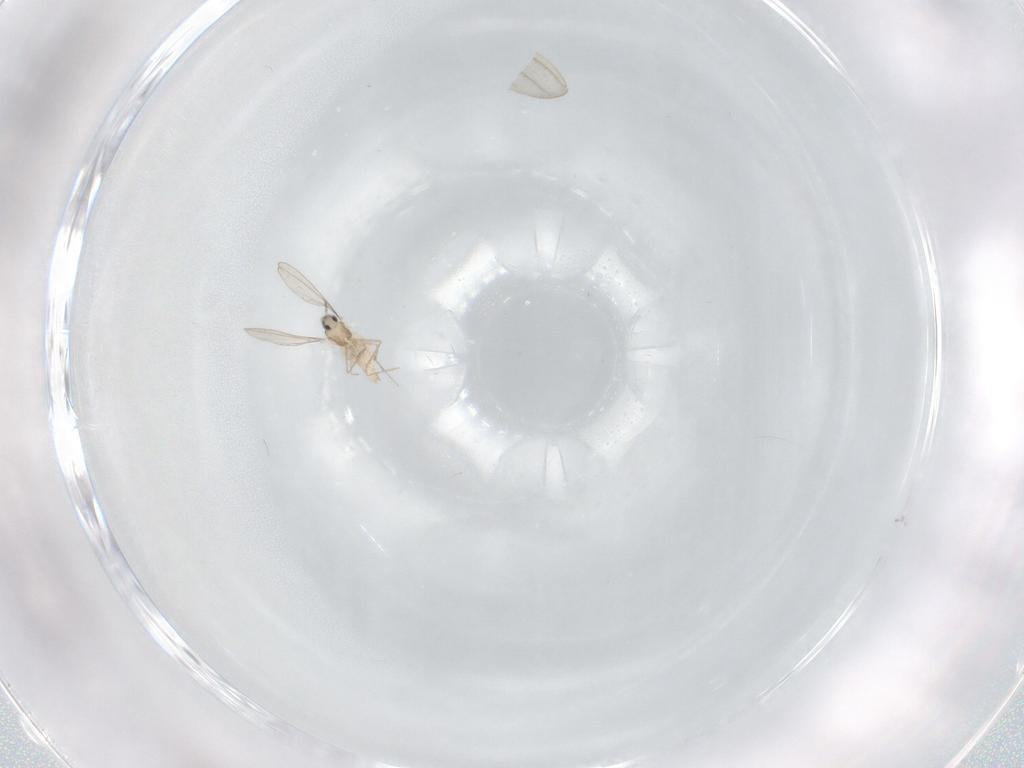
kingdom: Animalia
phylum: Arthropoda
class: Insecta
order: Diptera
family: Cecidomyiidae
